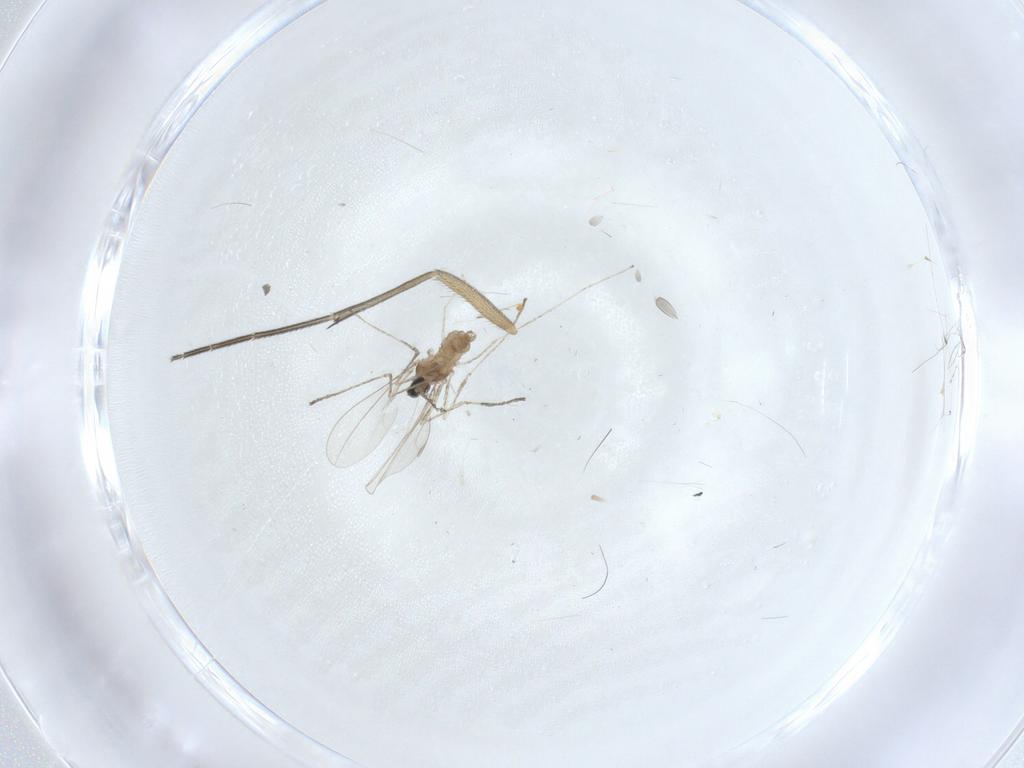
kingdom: Animalia
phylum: Arthropoda
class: Insecta
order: Diptera
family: Cecidomyiidae
